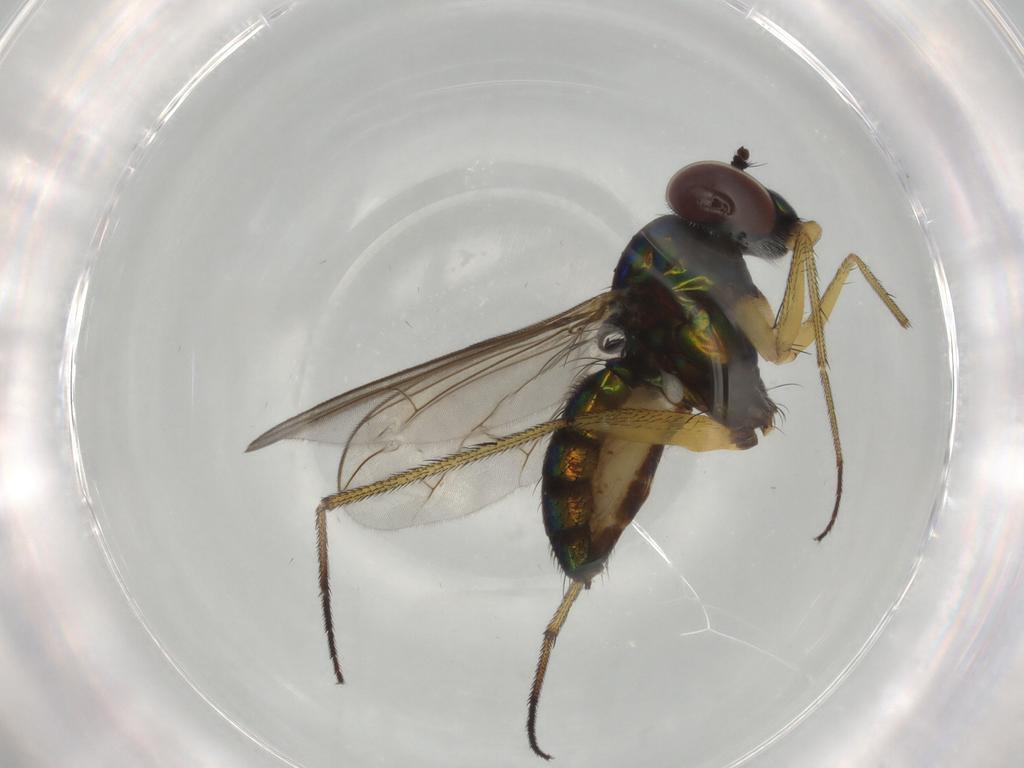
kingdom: Animalia
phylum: Arthropoda
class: Insecta
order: Diptera
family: Dolichopodidae
